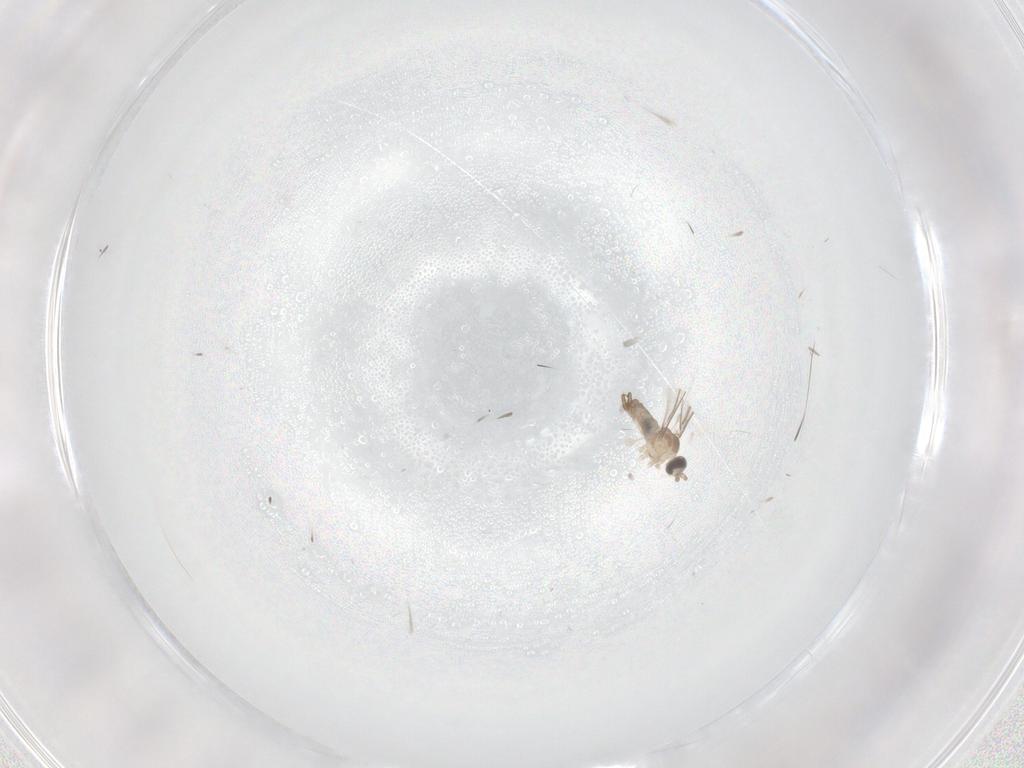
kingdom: Animalia
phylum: Arthropoda
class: Insecta
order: Diptera
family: Cecidomyiidae
